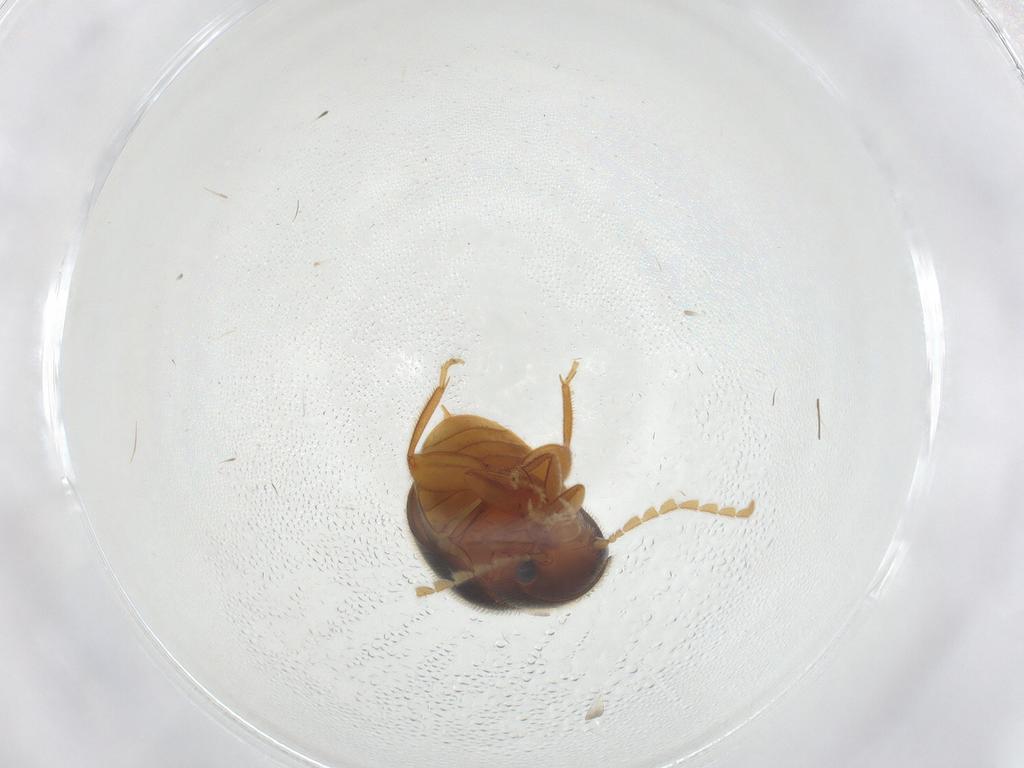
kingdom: Animalia
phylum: Arthropoda
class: Insecta
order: Coleoptera
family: Scirtidae
